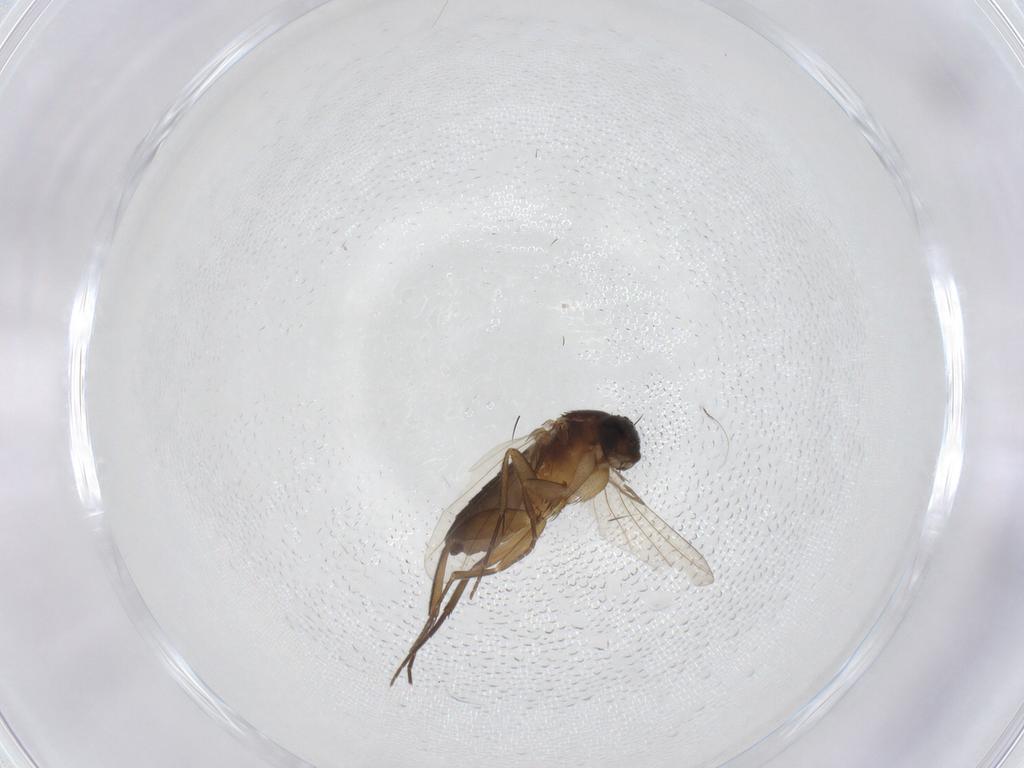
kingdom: Animalia
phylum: Arthropoda
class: Insecta
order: Diptera
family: Phoridae
